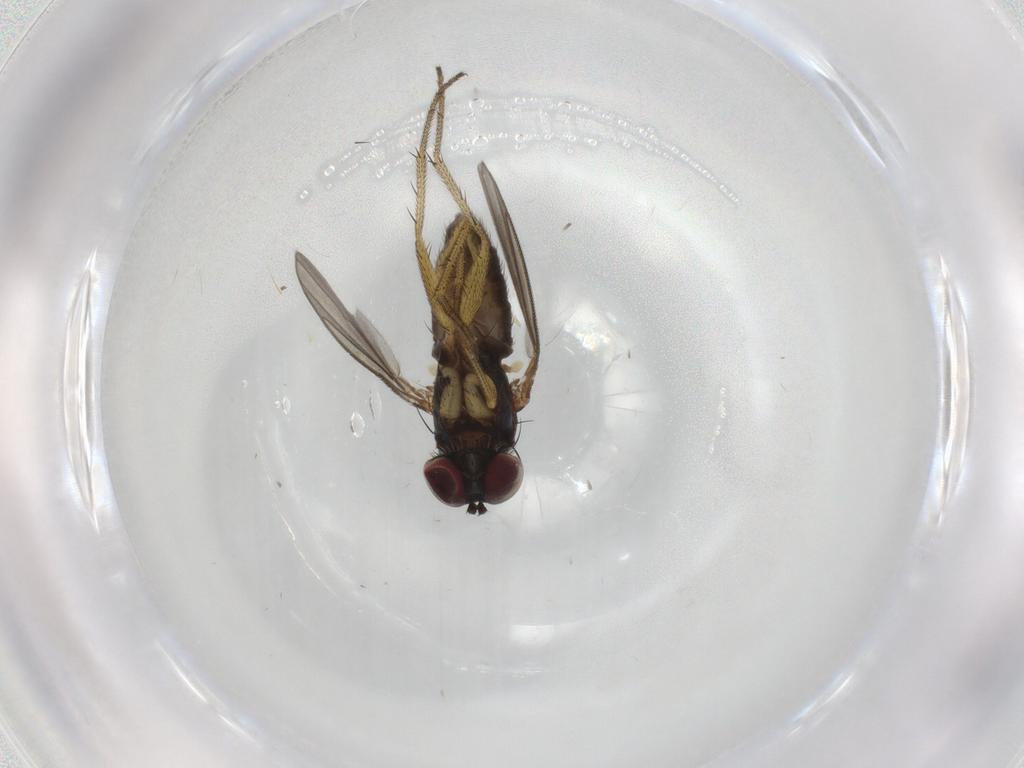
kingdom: Animalia
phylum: Arthropoda
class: Insecta
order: Diptera
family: Dolichopodidae
